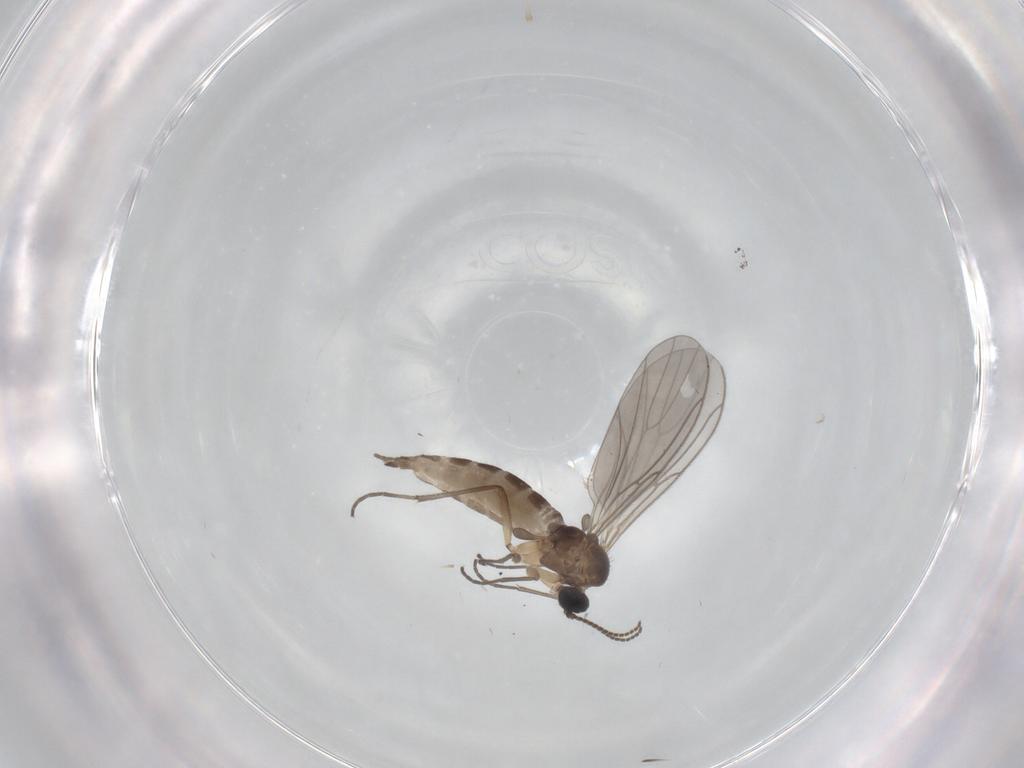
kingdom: Animalia
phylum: Arthropoda
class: Insecta
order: Diptera
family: Sciaridae
